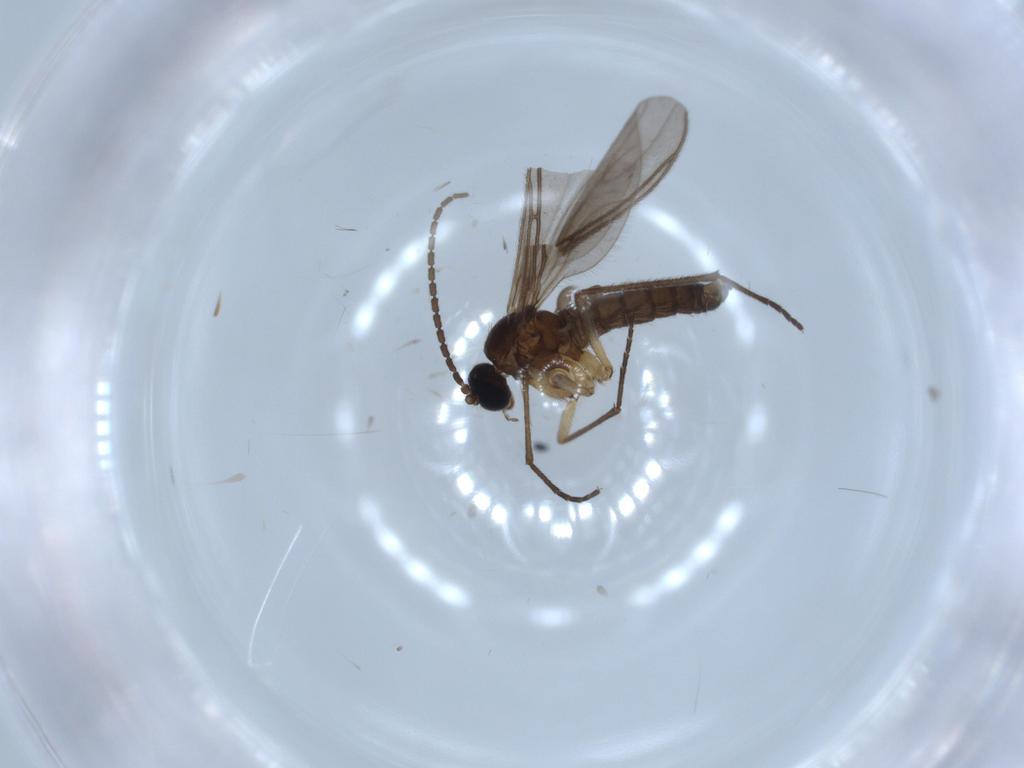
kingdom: Animalia
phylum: Arthropoda
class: Insecta
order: Diptera
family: Sciaridae
